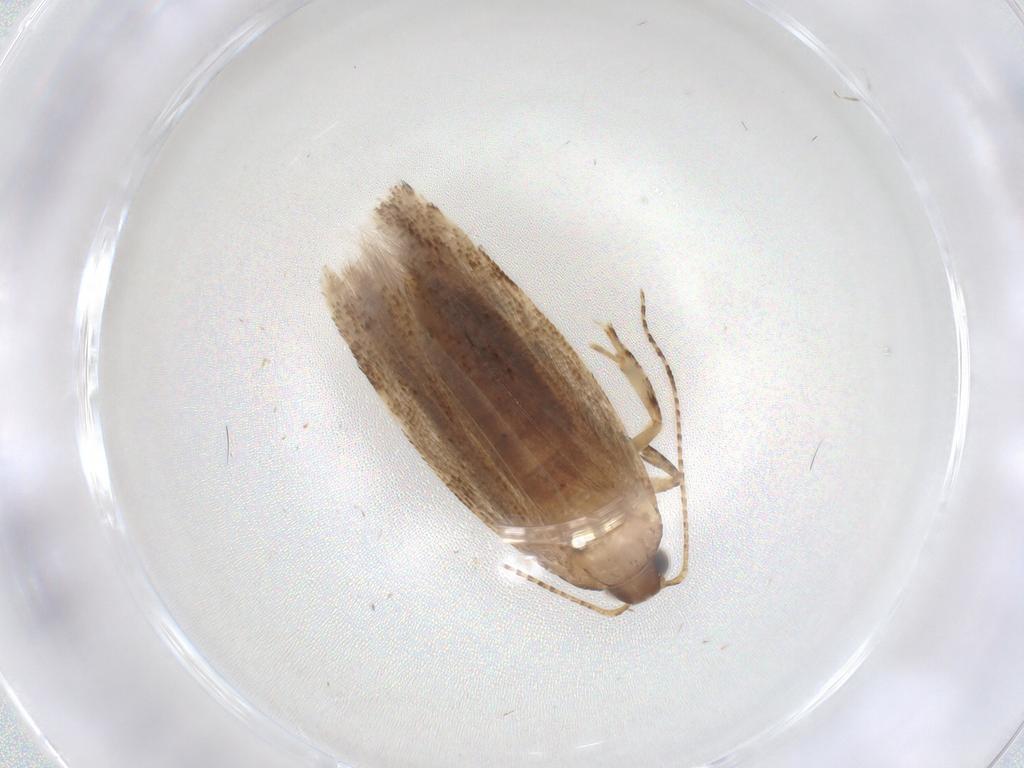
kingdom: Animalia
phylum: Arthropoda
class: Insecta
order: Lepidoptera
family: Gelechiidae
